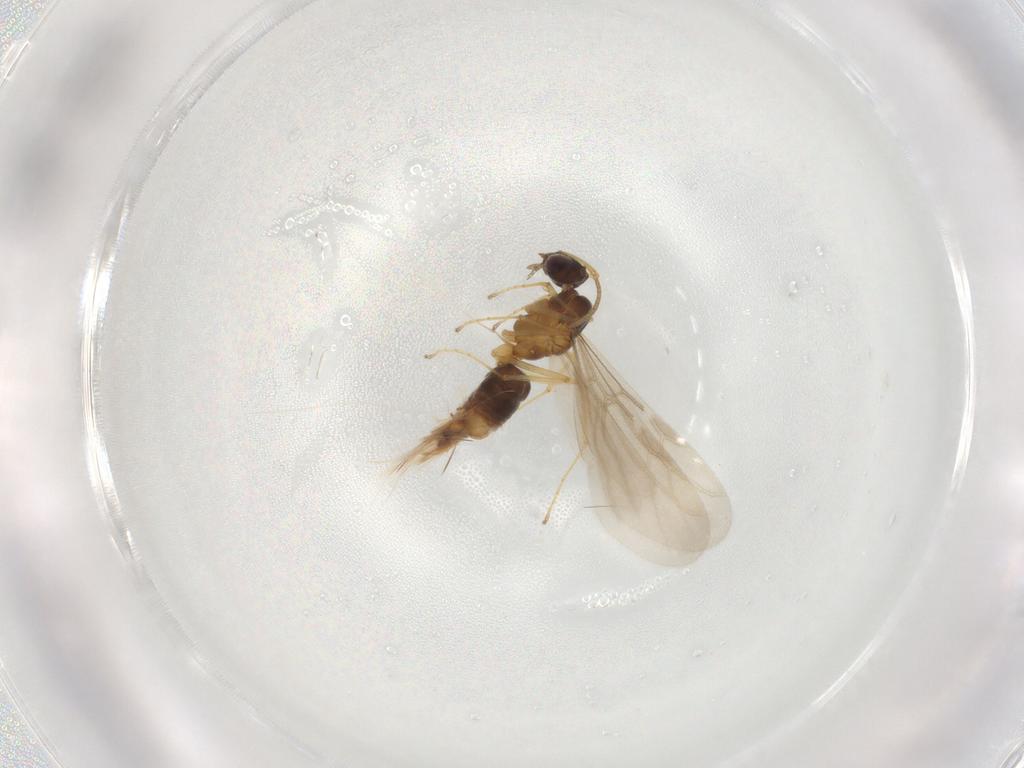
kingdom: Animalia
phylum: Arthropoda
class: Insecta
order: Hymenoptera
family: Formicidae
